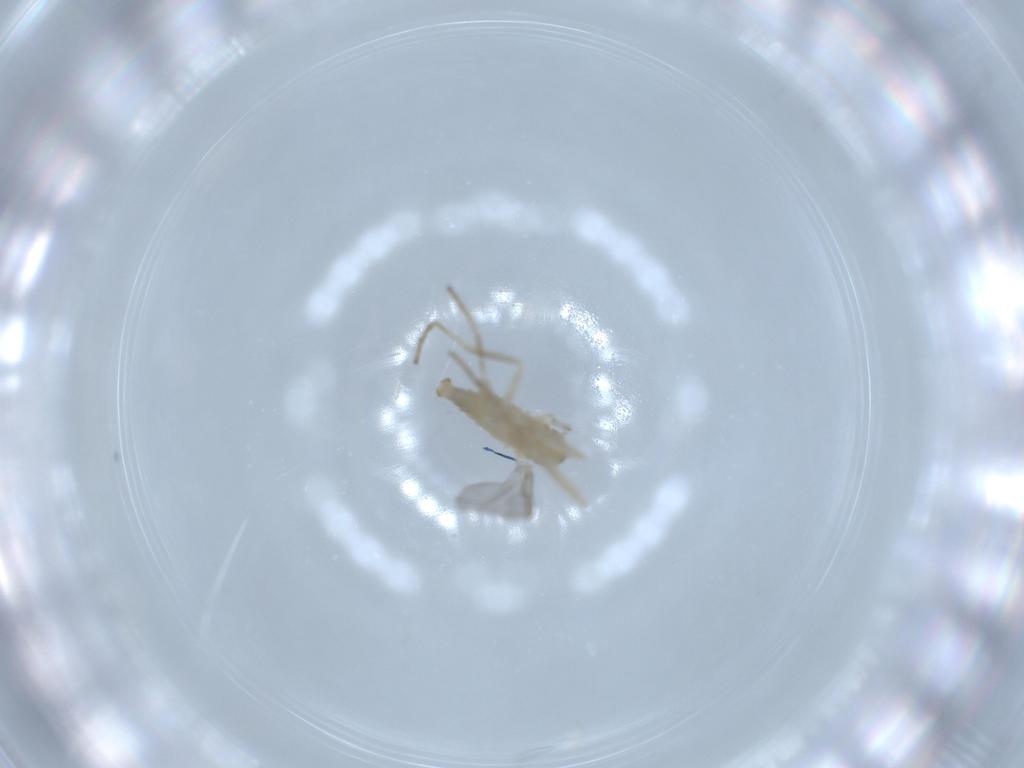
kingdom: Animalia
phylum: Arthropoda
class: Insecta
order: Diptera
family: Cecidomyiidae
